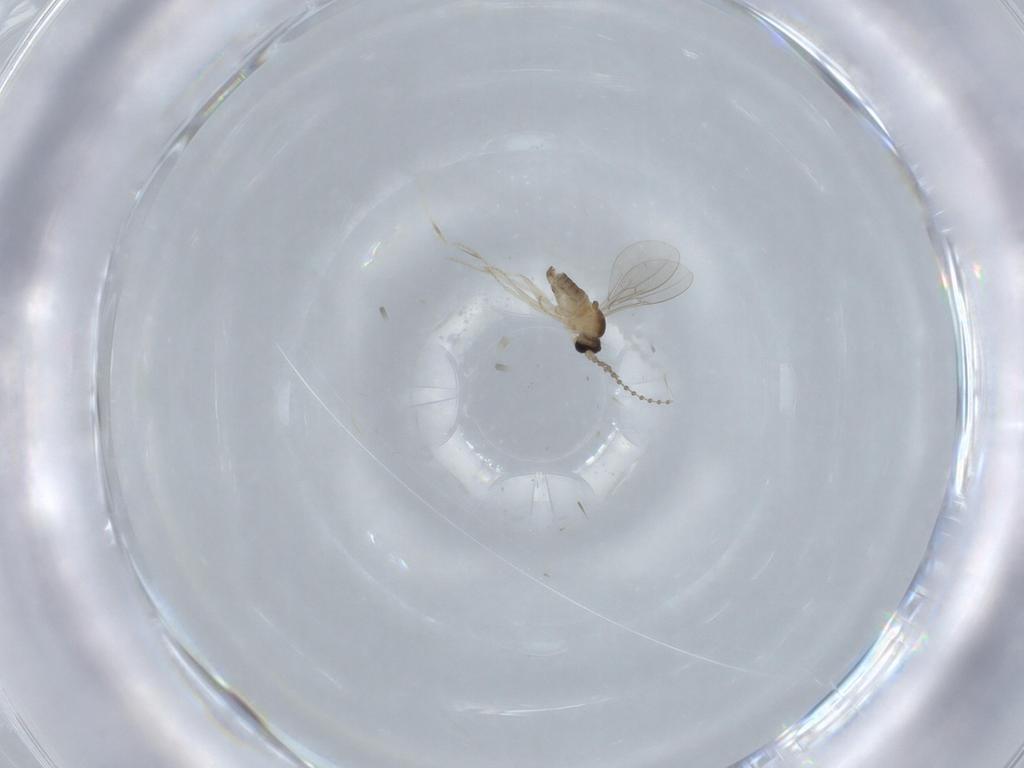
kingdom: Animalia
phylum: Arthropoda
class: Insecta
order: Diptera
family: Cecidomyiidae
